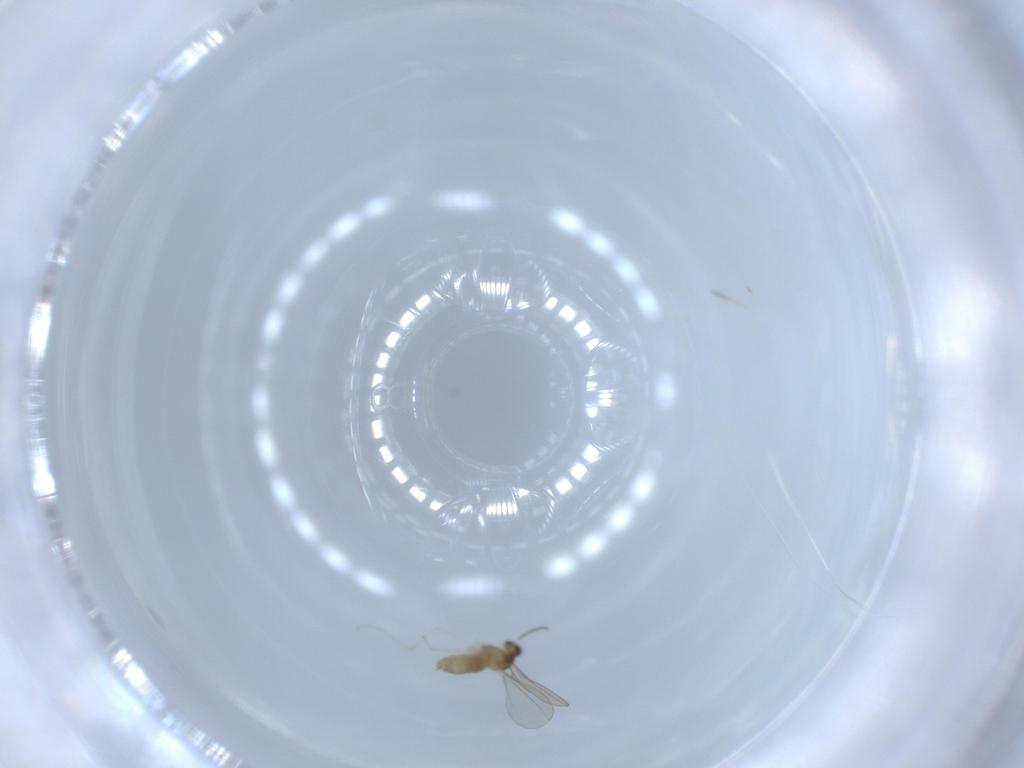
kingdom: Animalia
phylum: Arthropoda
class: Insecta
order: Diptera
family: Cecidomyiidae
